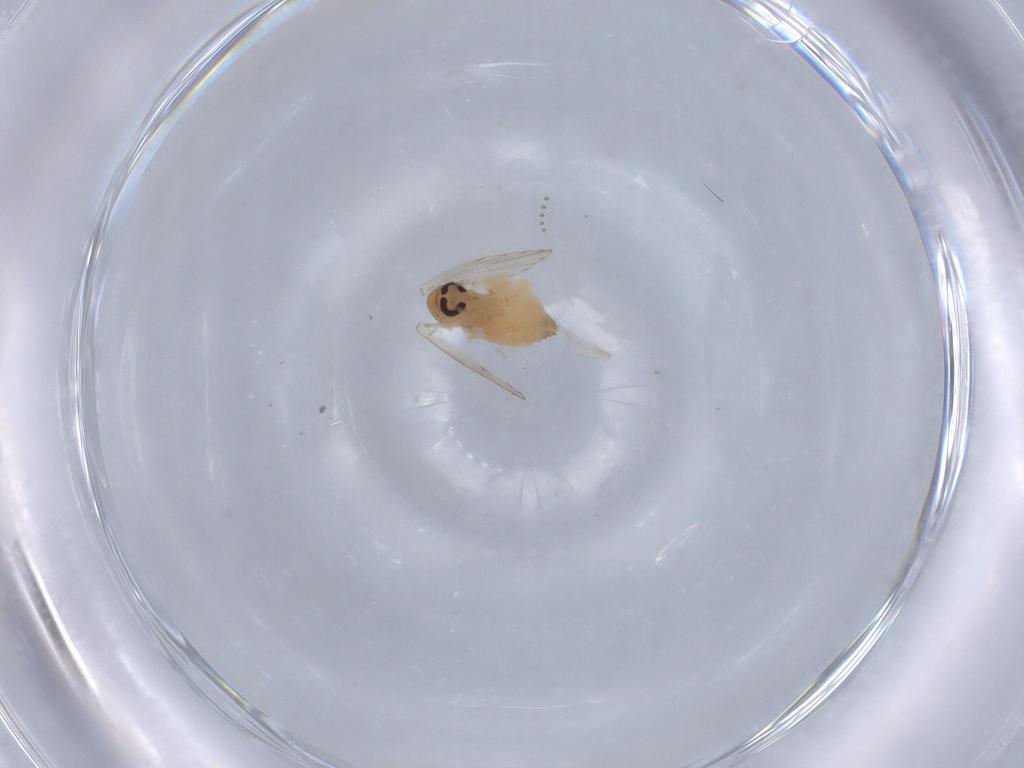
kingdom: Animalia
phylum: Arthropoda
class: Insecta
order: Diptera
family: Psychodidae
